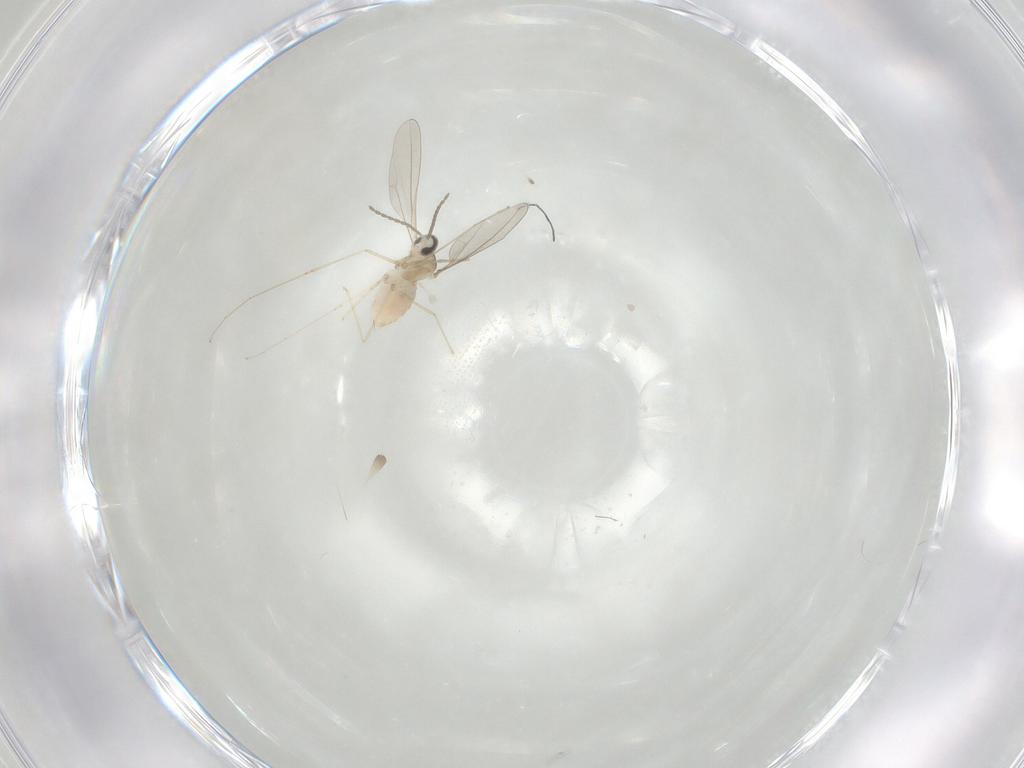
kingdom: Animalia
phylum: Arthropoda
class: Insecta
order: Diptera
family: Cecidomyiidae
